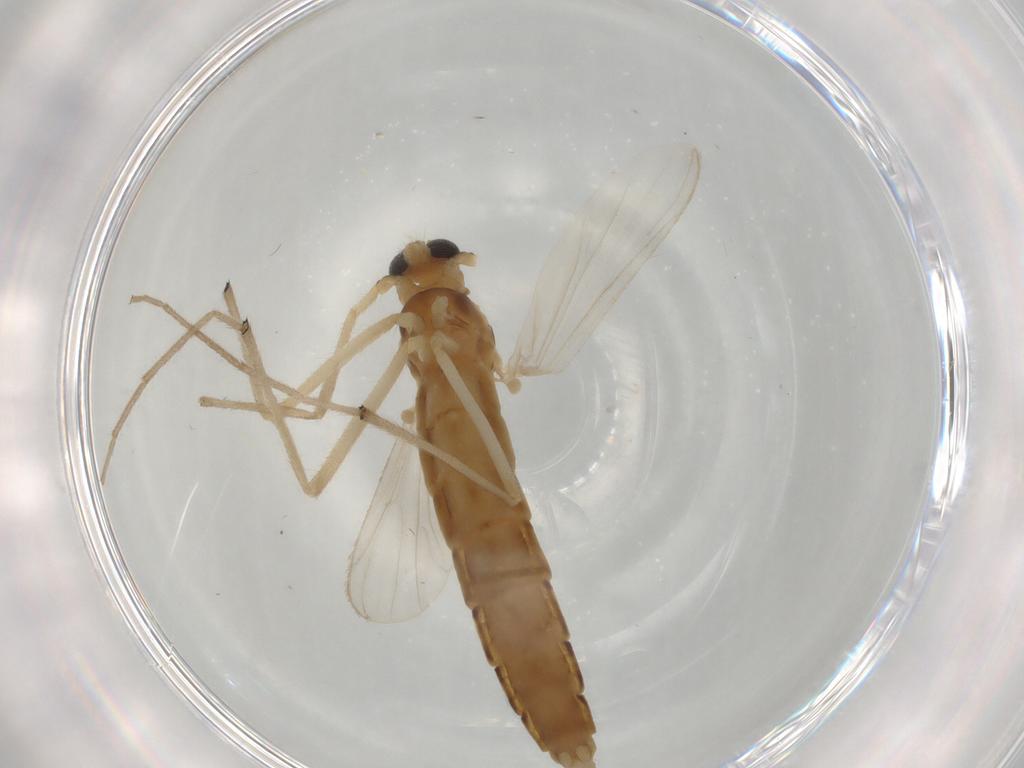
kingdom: Animalia
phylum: Arthropoda
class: Insecta
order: Diptera
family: Chironomidae
